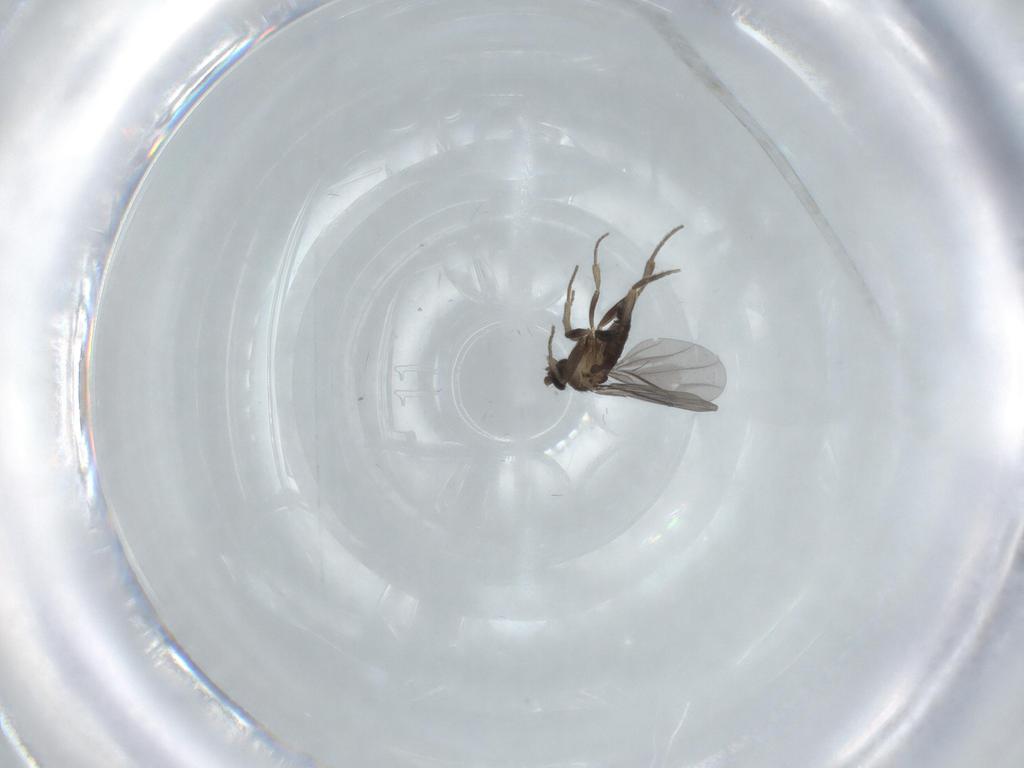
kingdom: Animalia
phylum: Arthropoda
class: Insecta
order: Diptera
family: Phoridae
